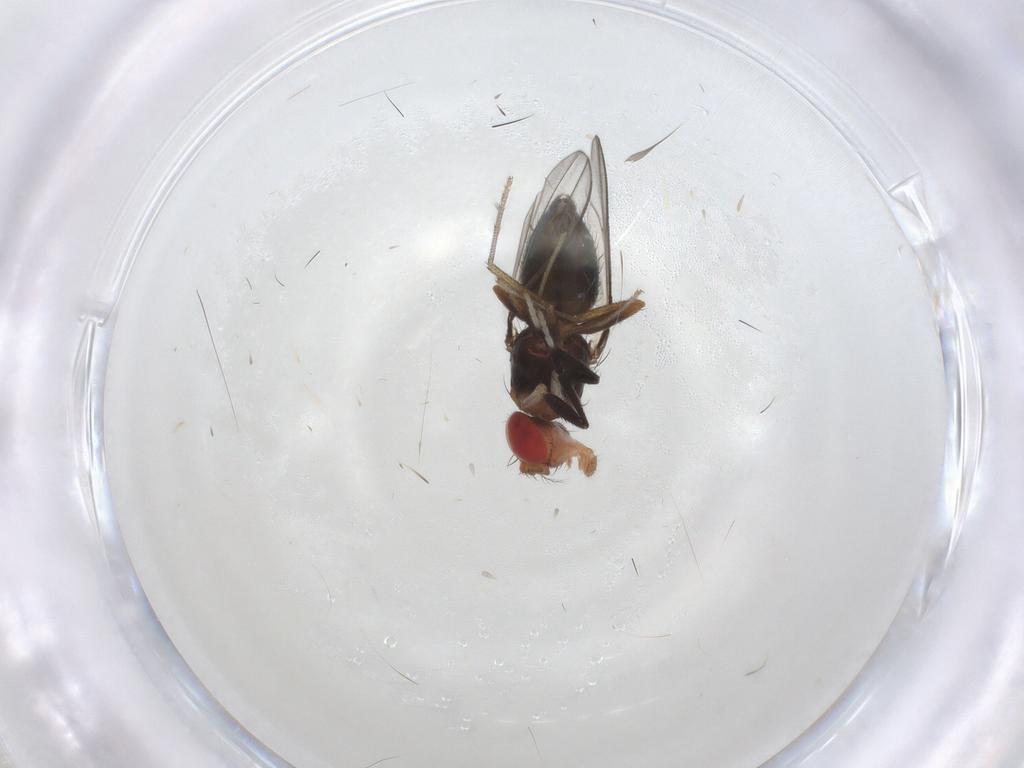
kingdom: Animalia
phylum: Arthropoda
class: Insecta
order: Diptera
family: Drosophilidae
